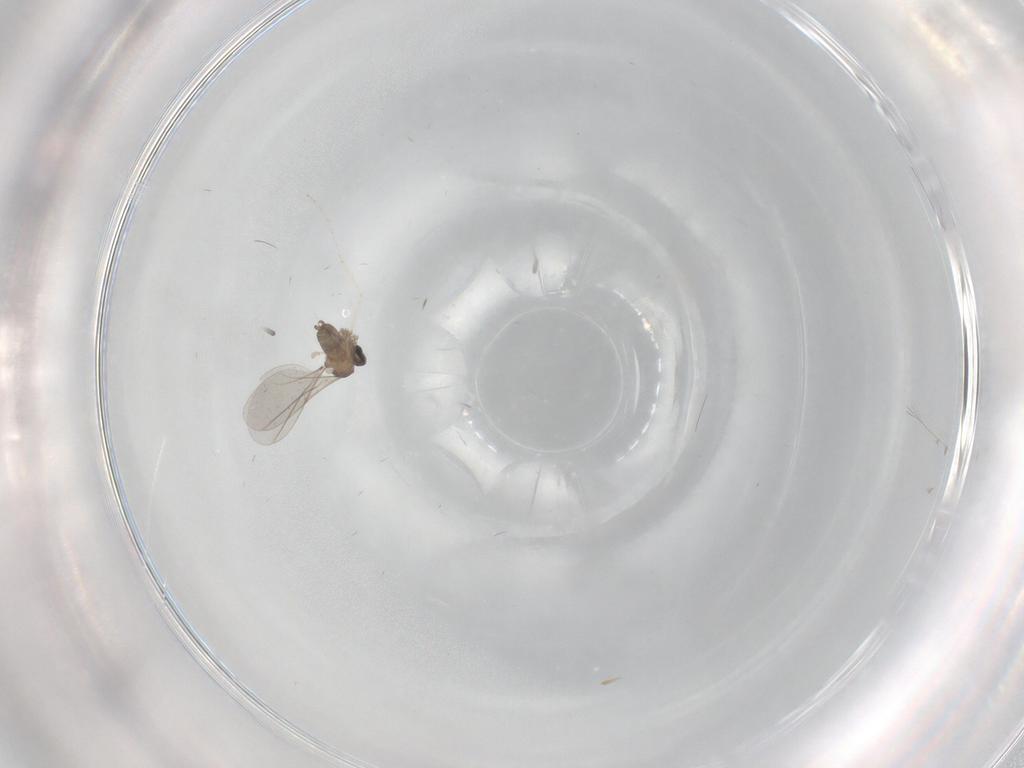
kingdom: Animalia
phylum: Arthropoda
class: Insecta
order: Diptera
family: Cecidomyiidae
